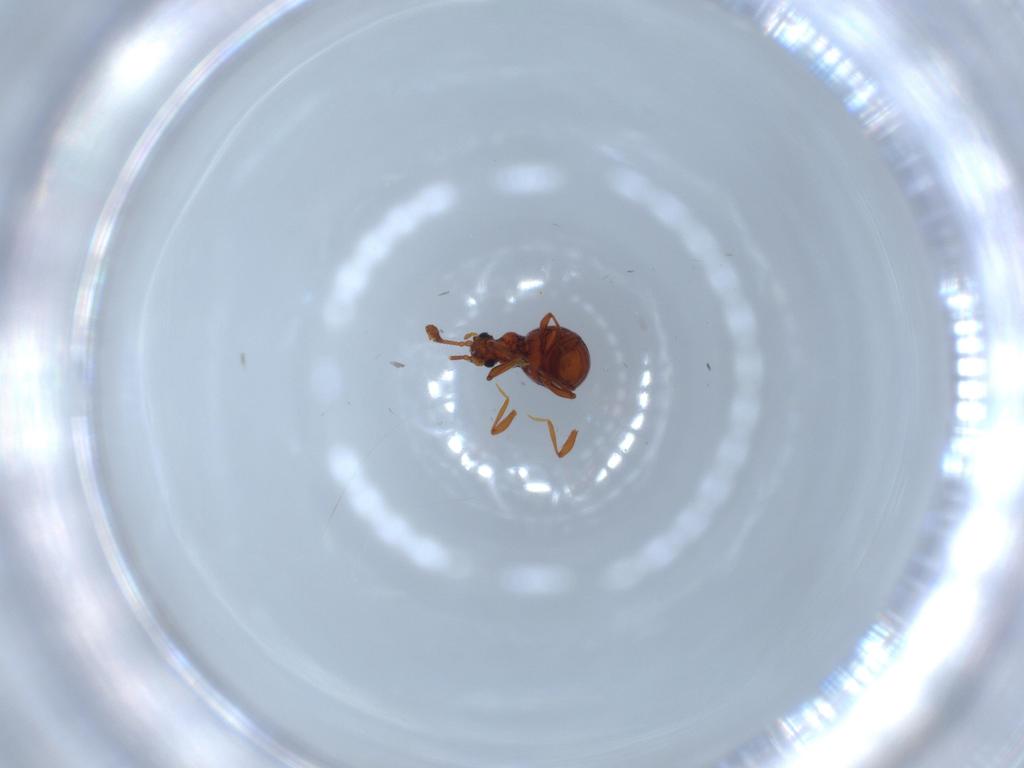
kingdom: Animalia
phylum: Arthropoda
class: Insecta
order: Coleoptera
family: Staphylinidae
